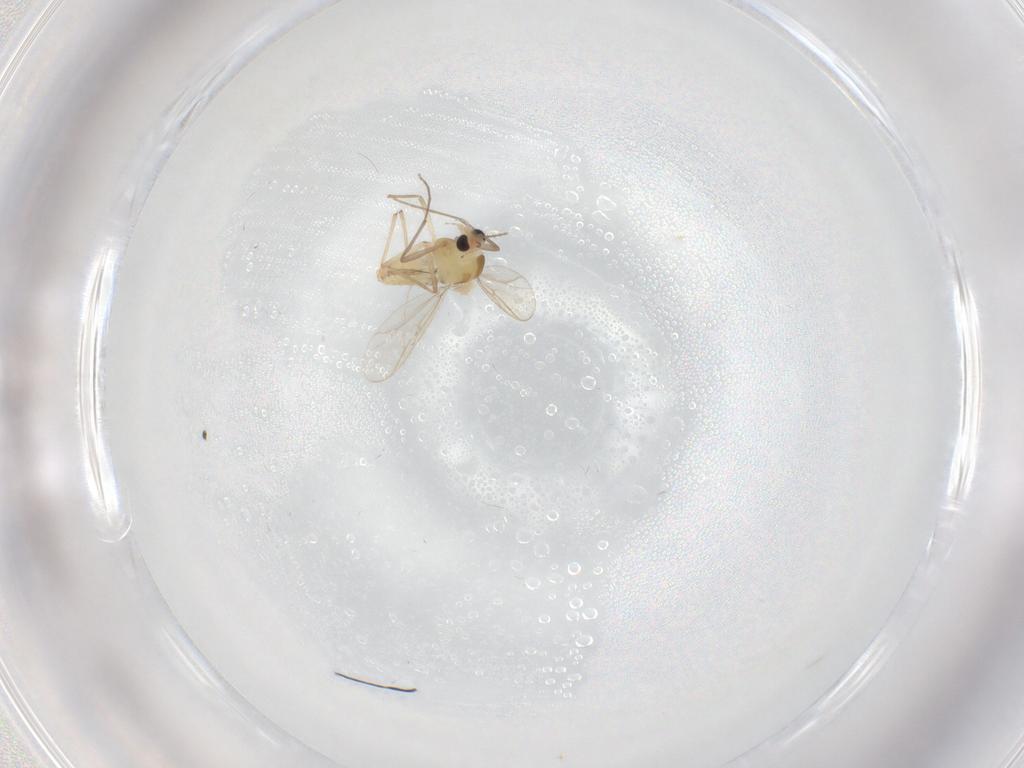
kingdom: Animalia
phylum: Arthropoda
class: Insecta
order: Diptera
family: Chironomidae
